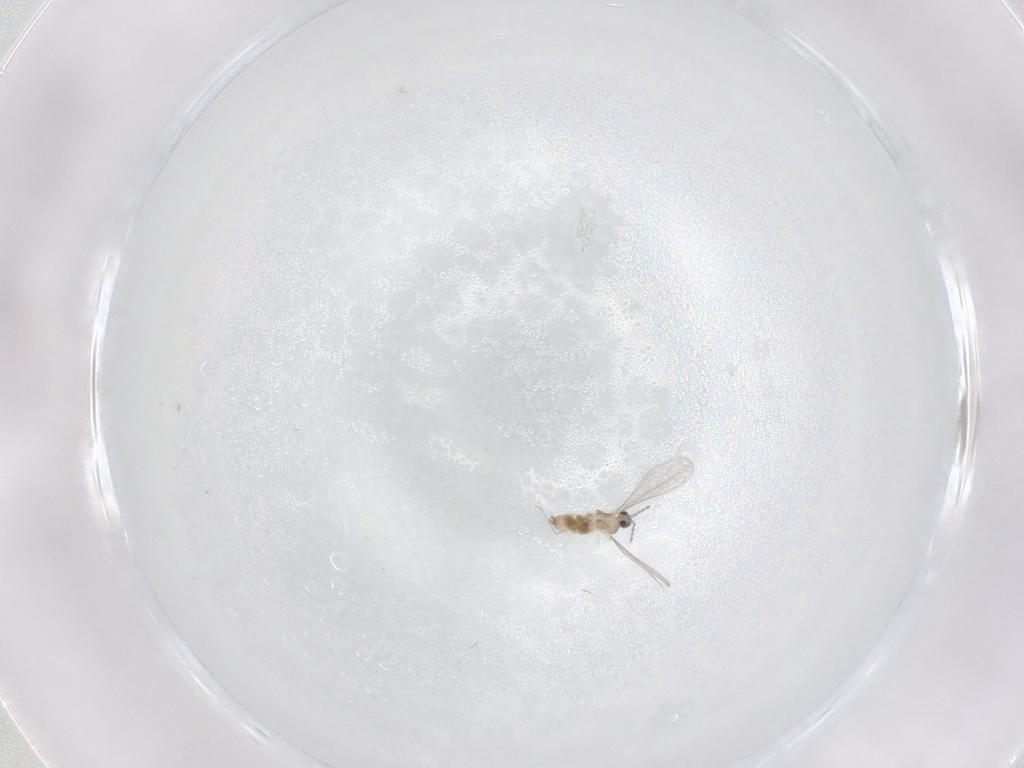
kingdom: Animalia
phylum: Arthropoda
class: Insecta
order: Diptera
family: Cecidomyiidae
